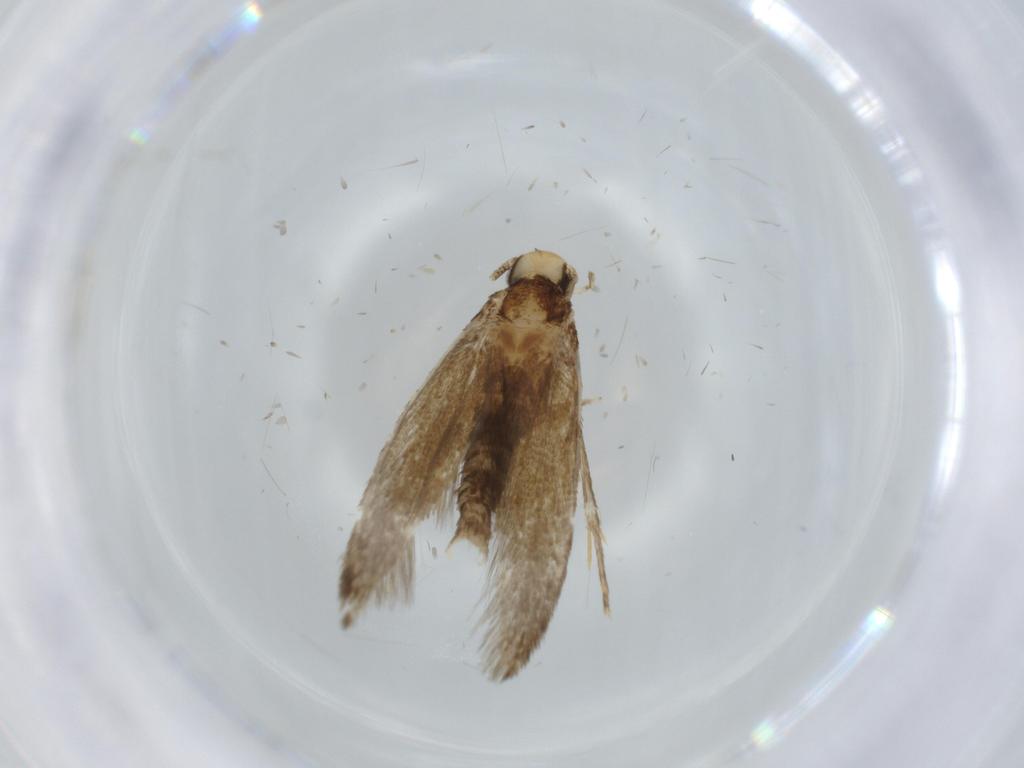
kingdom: Animalia
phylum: Arthropoda
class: Insecta
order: Lepidoptera
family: Tineidae
